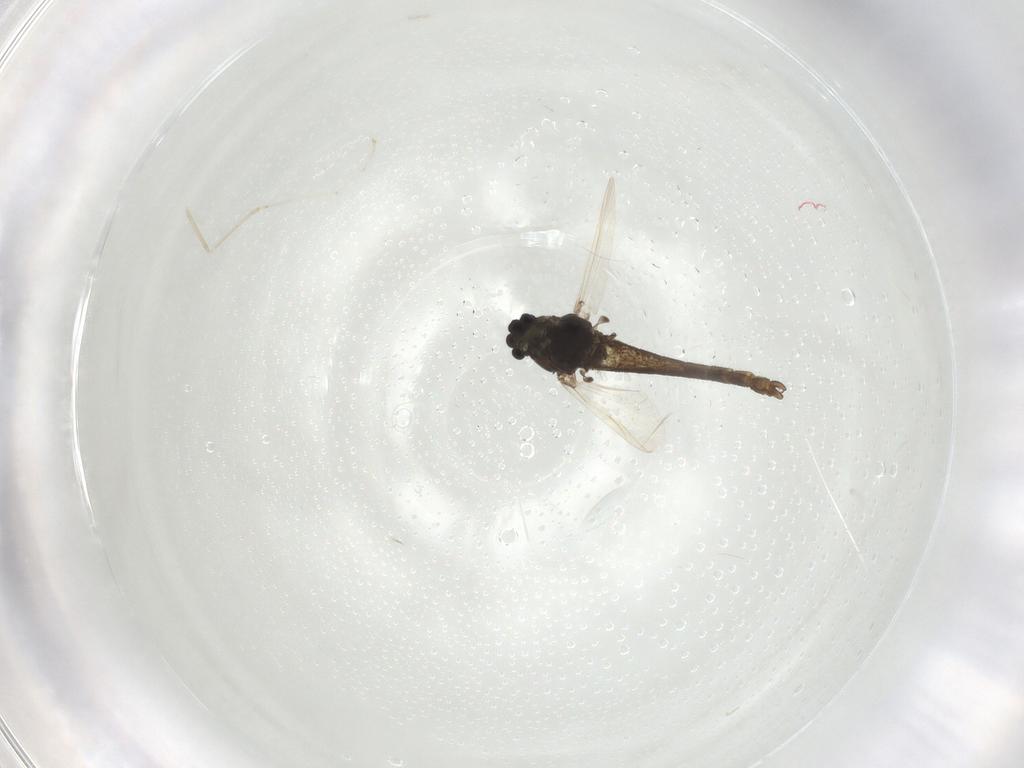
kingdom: Animalia
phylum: Arthropoda
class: Insecta
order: Diptera
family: Chironomidae
